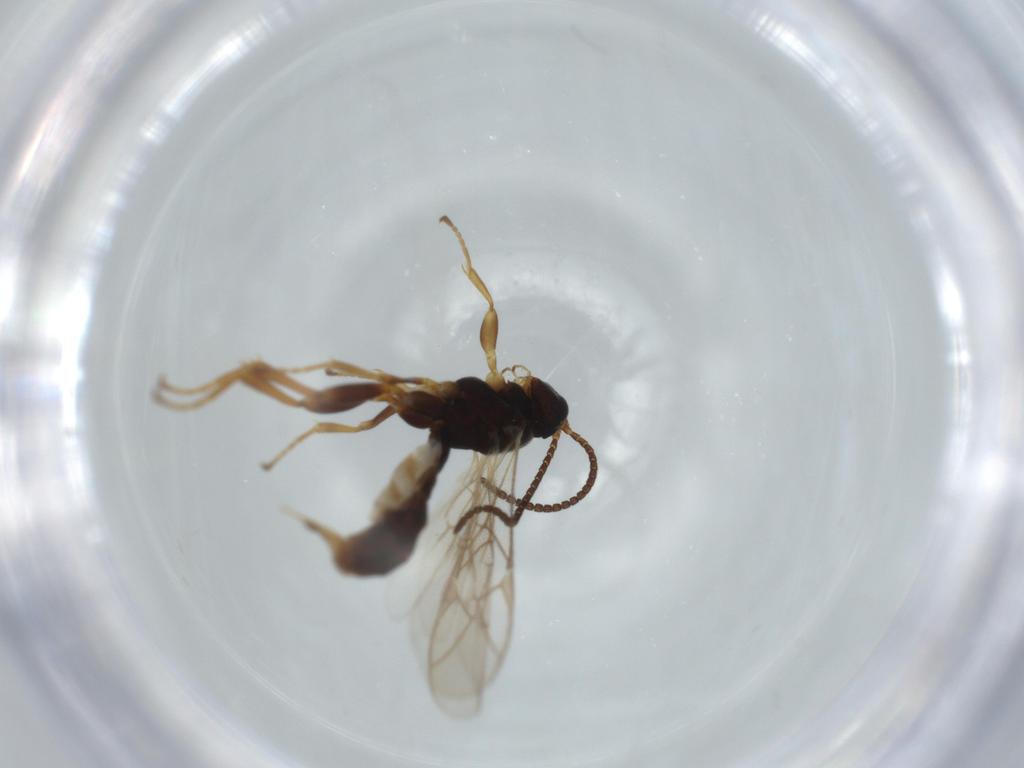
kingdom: Animalia
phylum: Arthropoda
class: Insecta
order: Hymenoptera
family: Ichneumonidae
